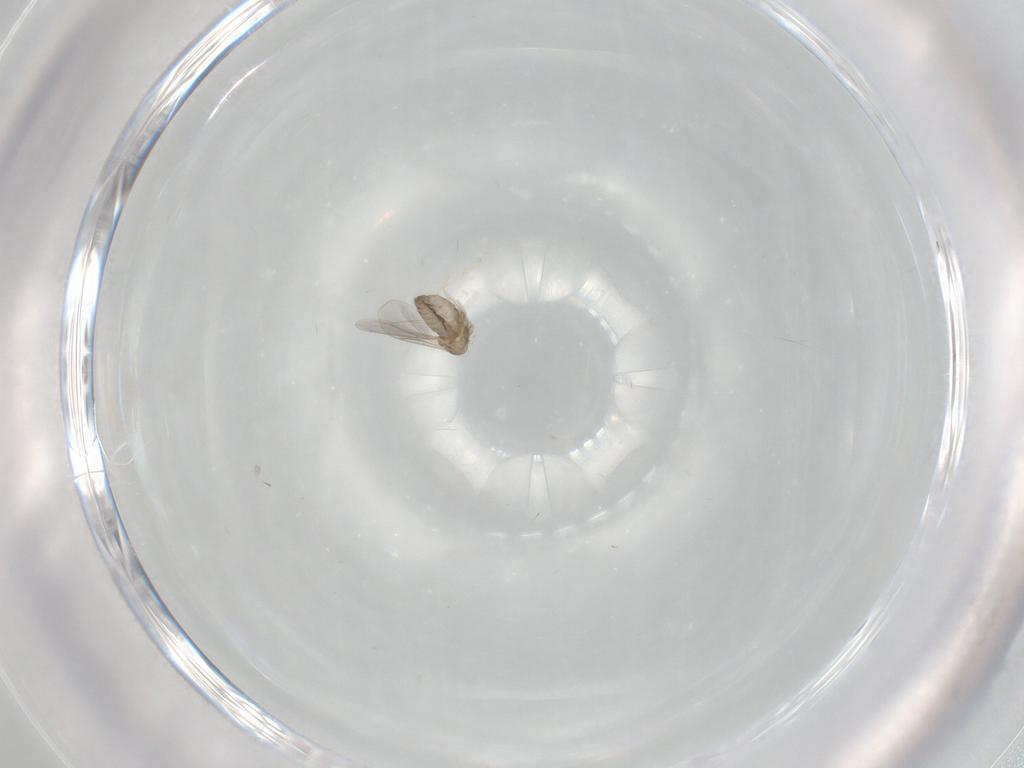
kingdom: Animalia
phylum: Arthropoda
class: Insecta
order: Diptera
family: Cecidomyiidae
